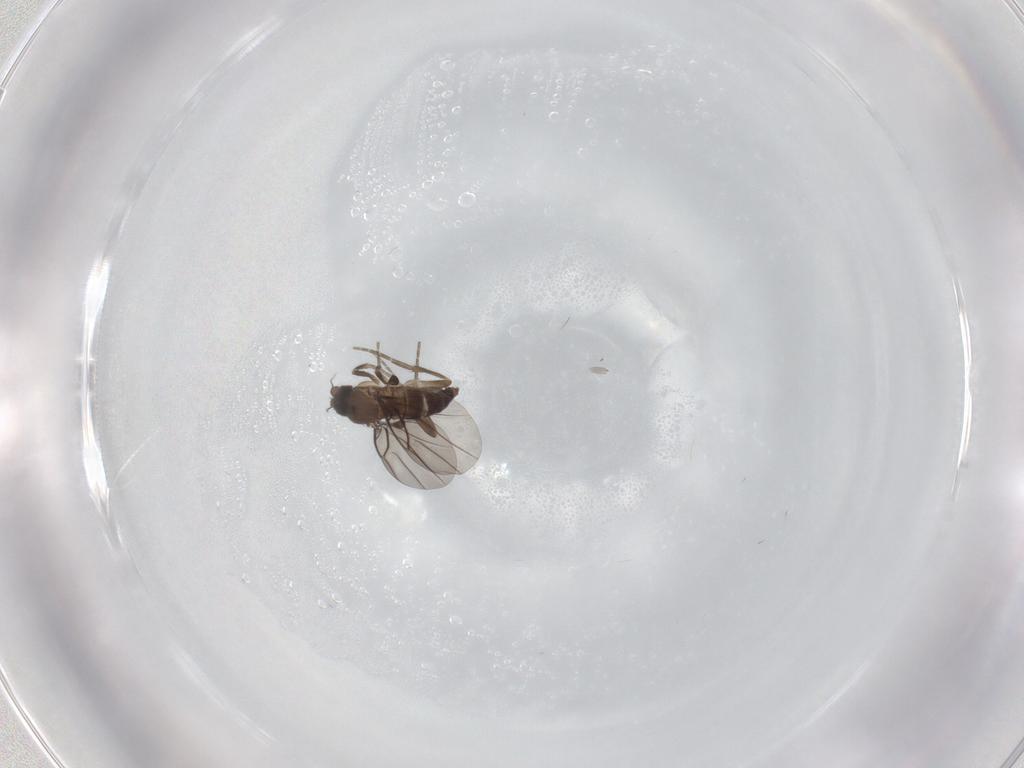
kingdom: Animalia
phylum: Arthropoda
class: Insecta
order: Diptera
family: Limoniidae
